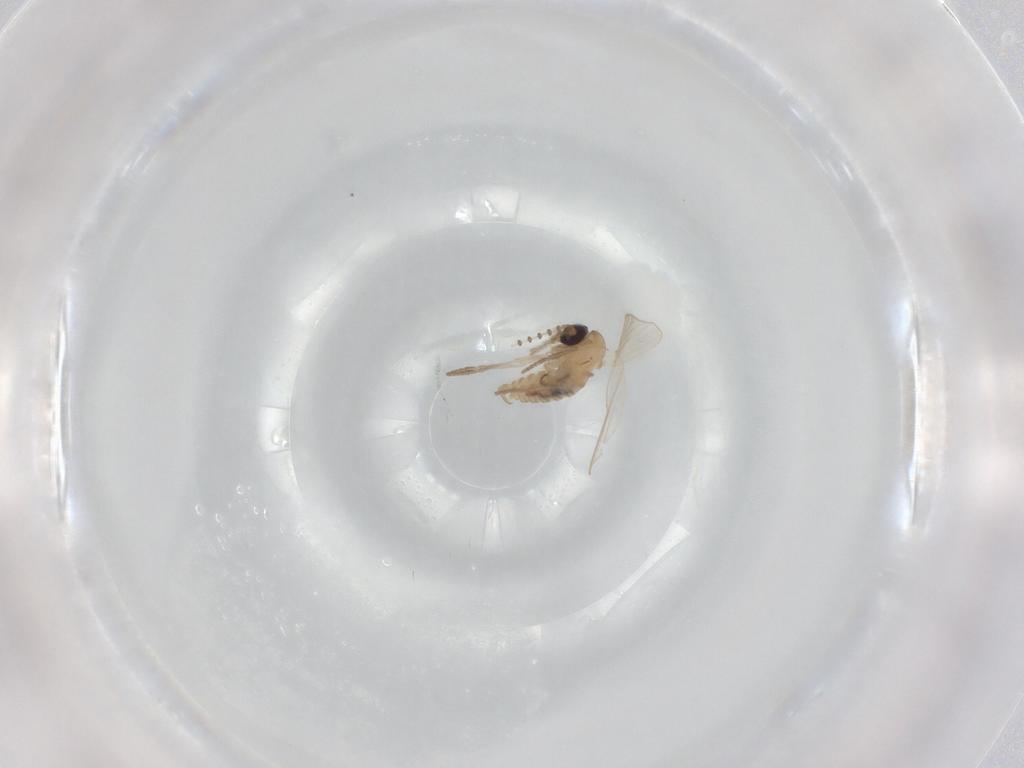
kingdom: Animalia
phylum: Arthropoda
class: Insecta
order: Diptera
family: Psychodidae
